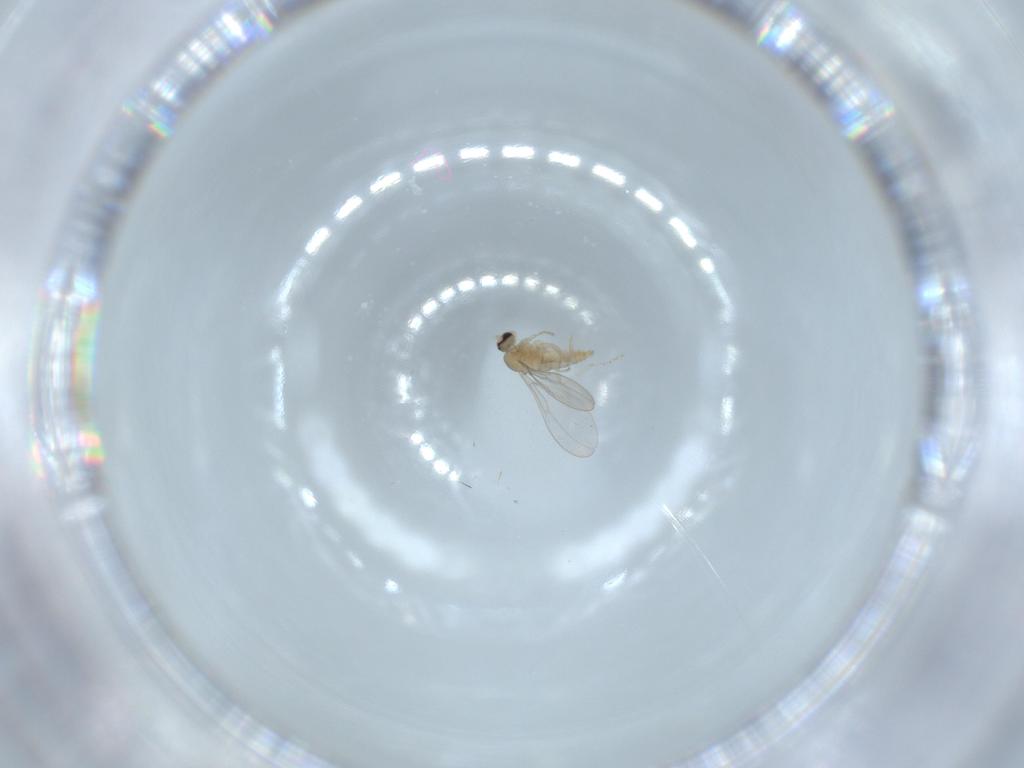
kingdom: Animalia
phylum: Arthropoda
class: Insecta
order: Diptera
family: Cecidomyiidae
